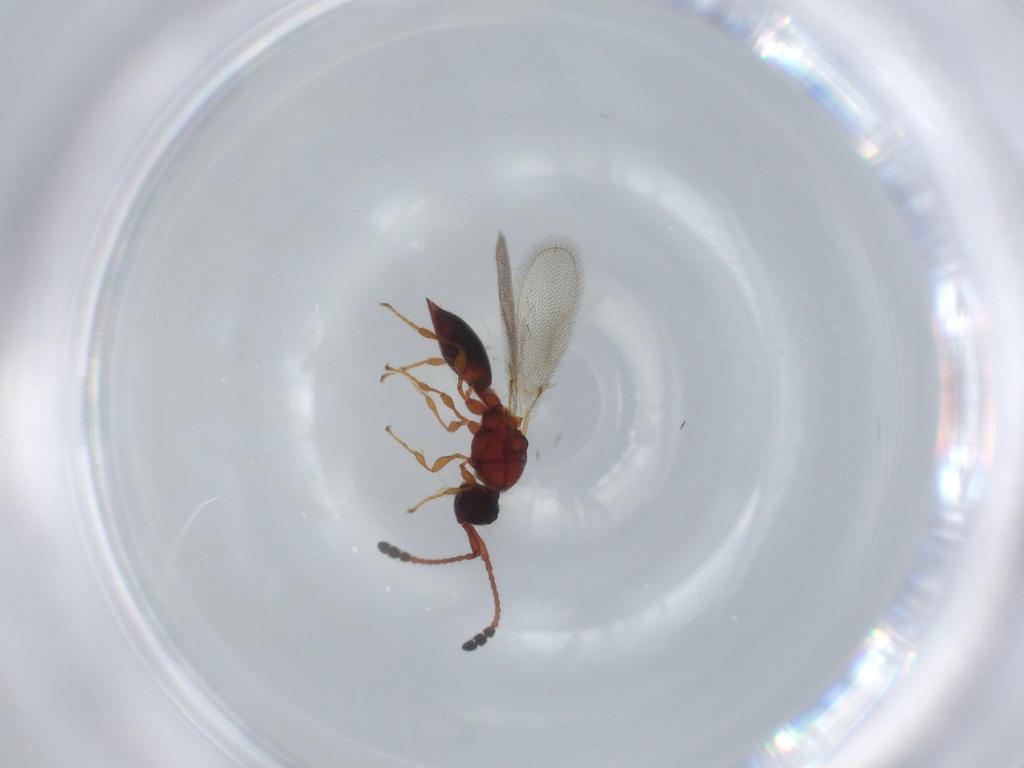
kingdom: Animalia
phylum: Arthropoda
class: Insecta
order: Hymenoptera
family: Diapriidae
